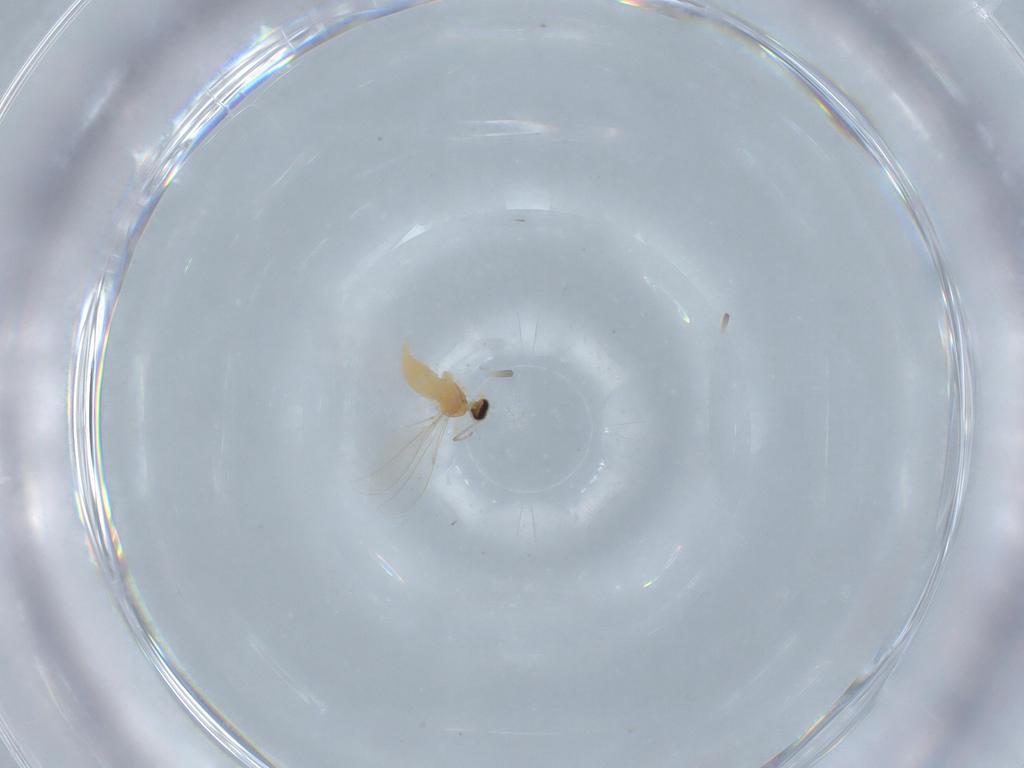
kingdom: Animalia
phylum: Arthropoda
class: Insecta
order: Diptera
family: Cecidomyiidae
